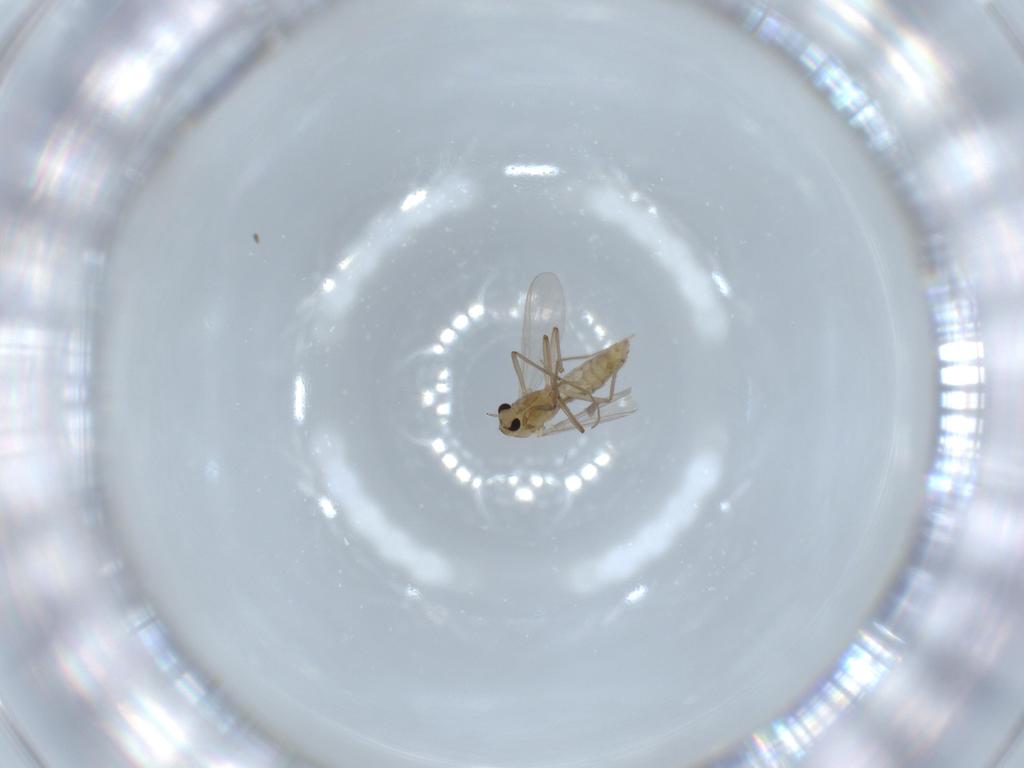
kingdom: Animalia
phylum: Arthropoda
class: Insecta
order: Diptera
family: Chironomidae
